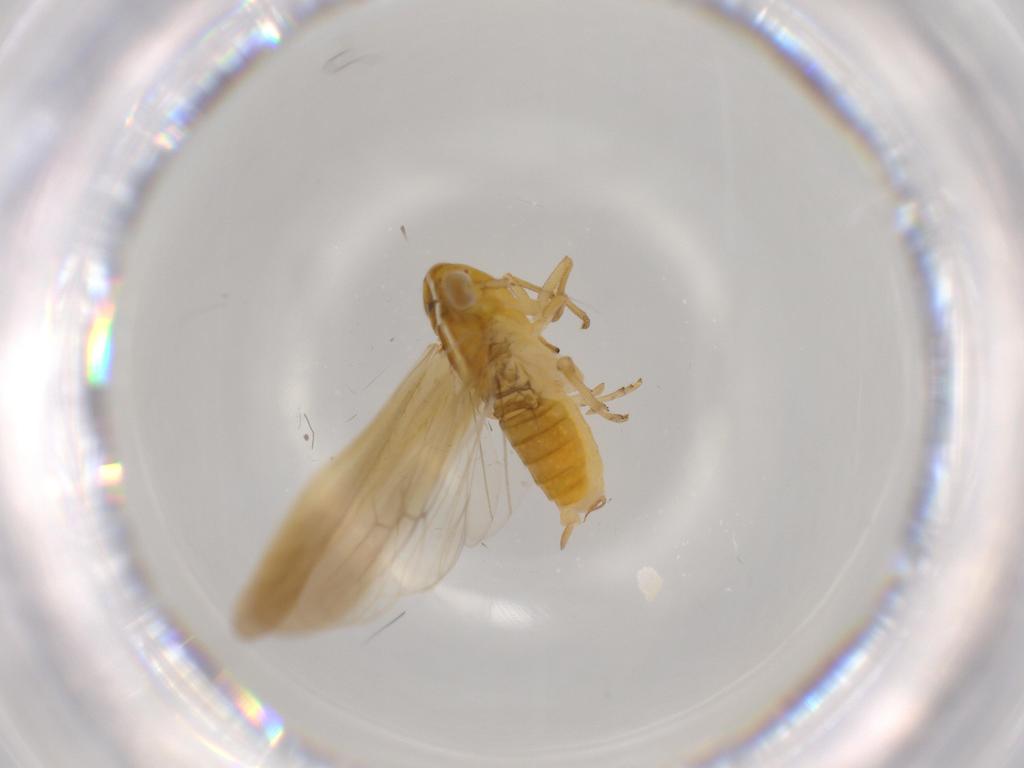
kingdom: Animalia
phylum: Arthropoda
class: Insecta
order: Hemiptera
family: Delphacidae
